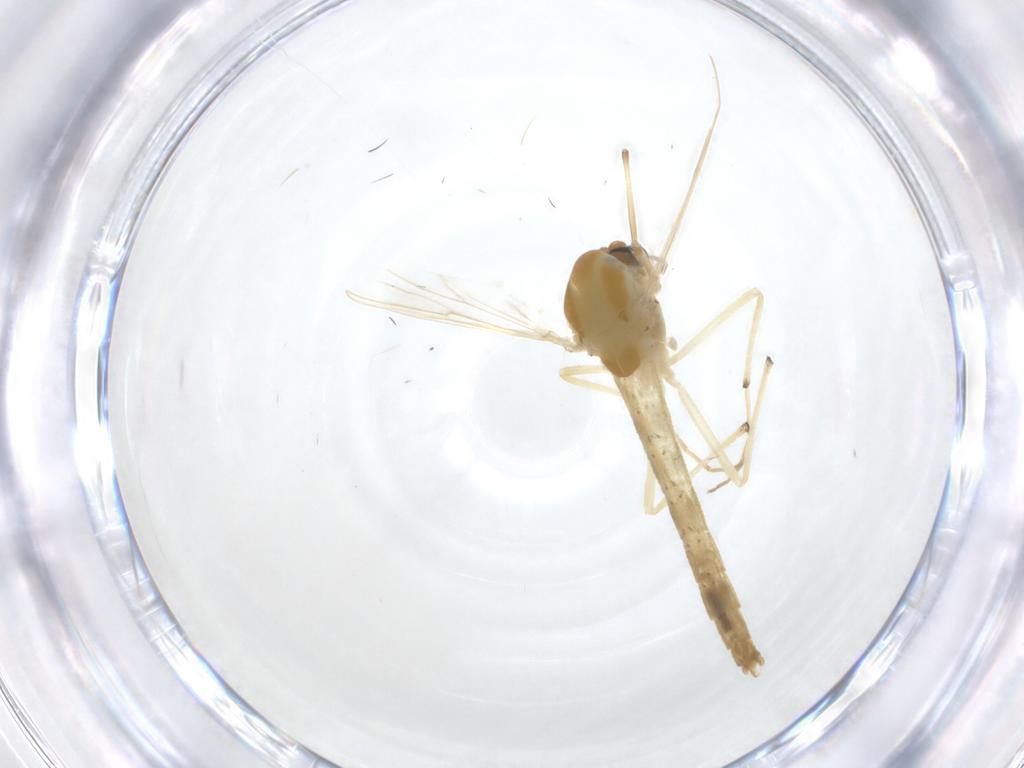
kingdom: Animalia
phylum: Arthropoda
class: Insecta
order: Diptera
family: Chironomidae
